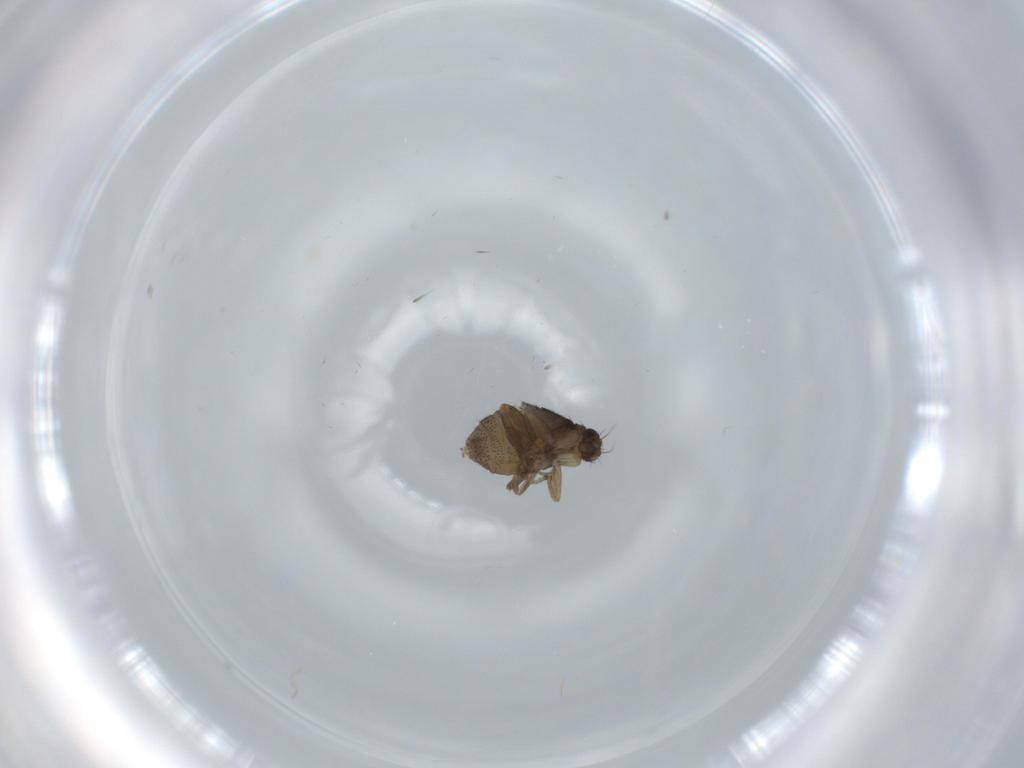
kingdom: Animalia
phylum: Arthropoda
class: Insecta
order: Diptera
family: Phoridae
